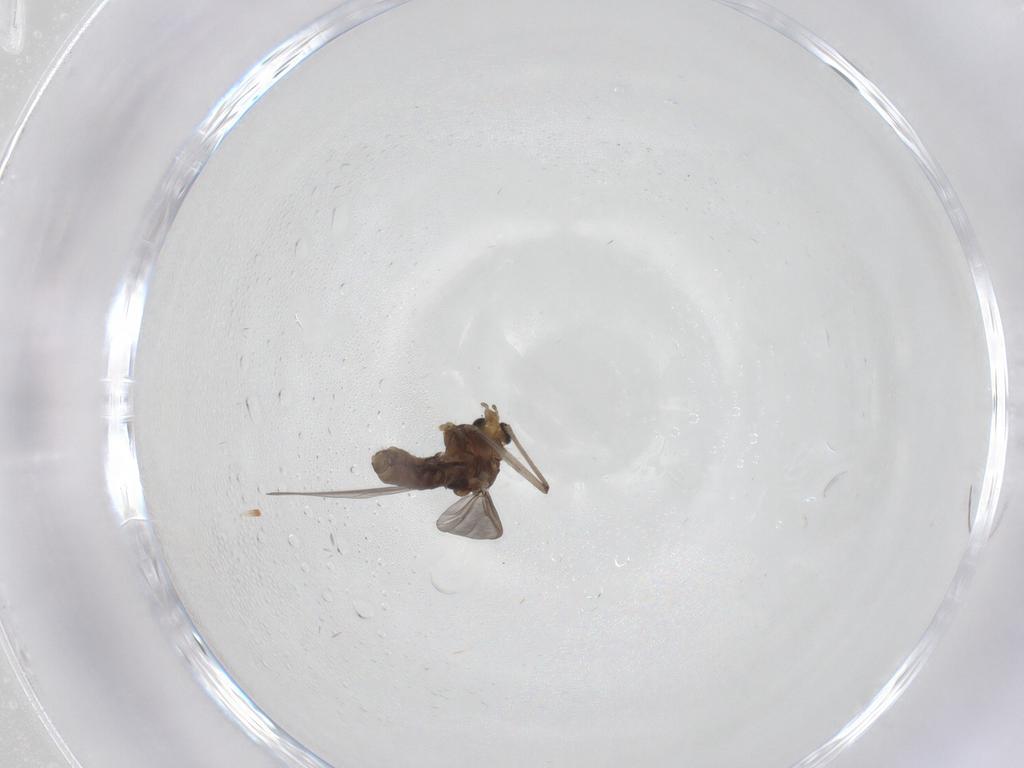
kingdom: Animalia
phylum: Arthropoda
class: Insecta
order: Diptera
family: Chironomidae
